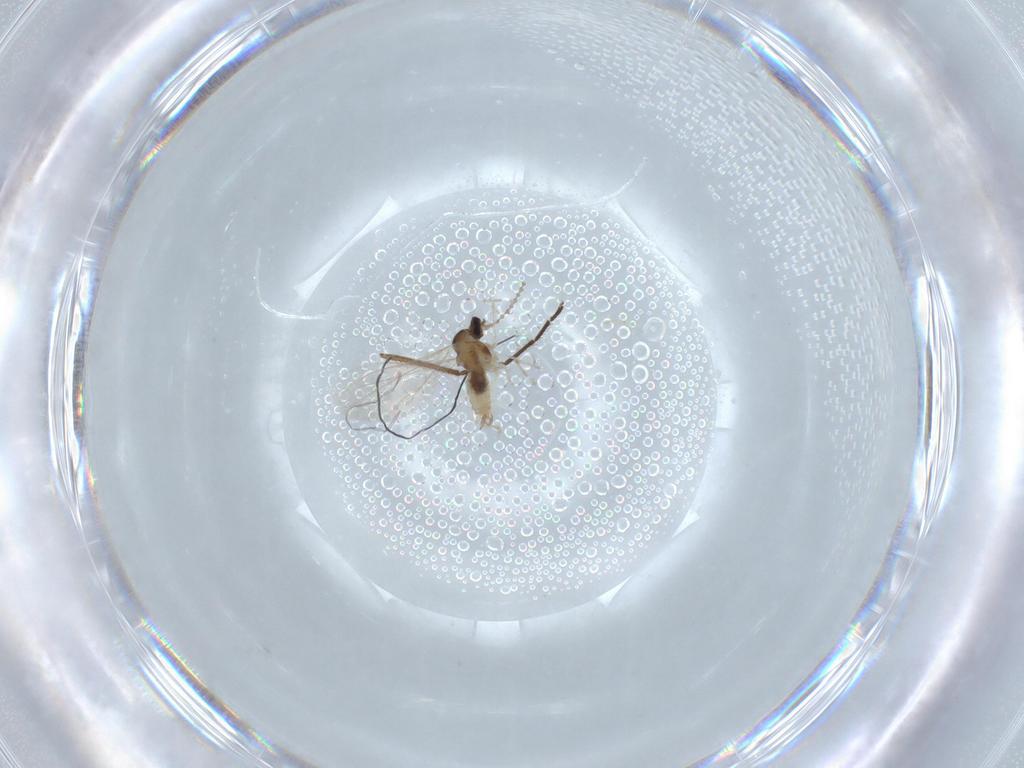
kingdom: Animalia
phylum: Arthropoda
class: Insecta
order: Diptera
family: Cecidomyiidae
